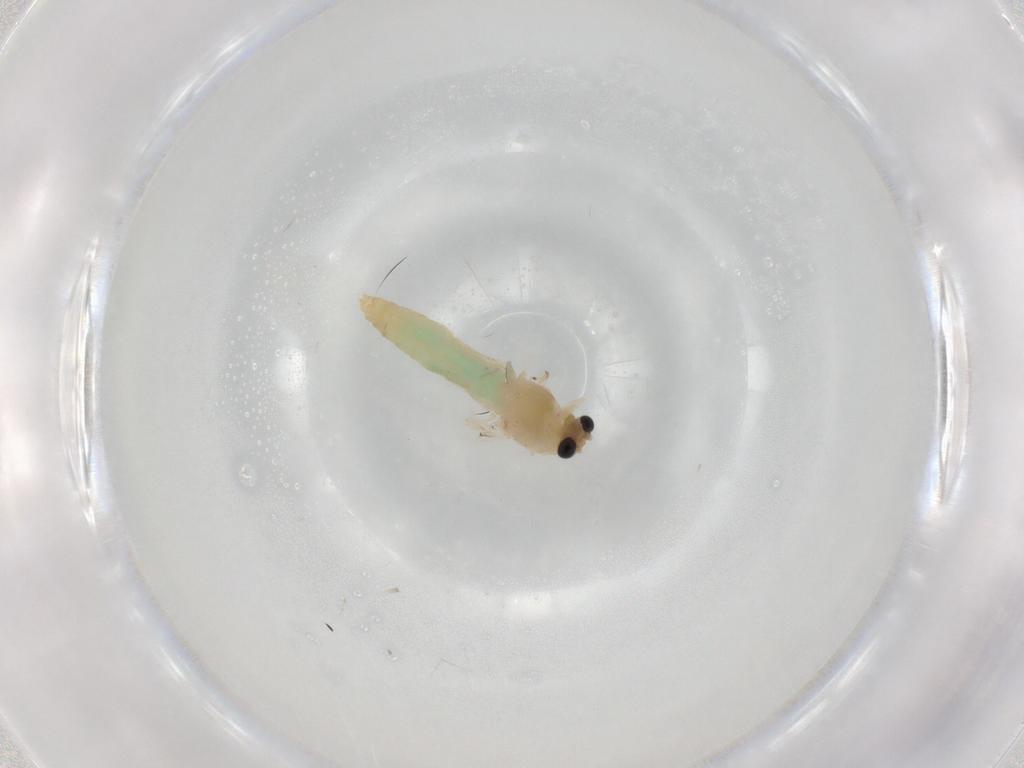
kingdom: Animalia
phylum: Arthropoda
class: Insecta
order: Diptera
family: Chironomidae
